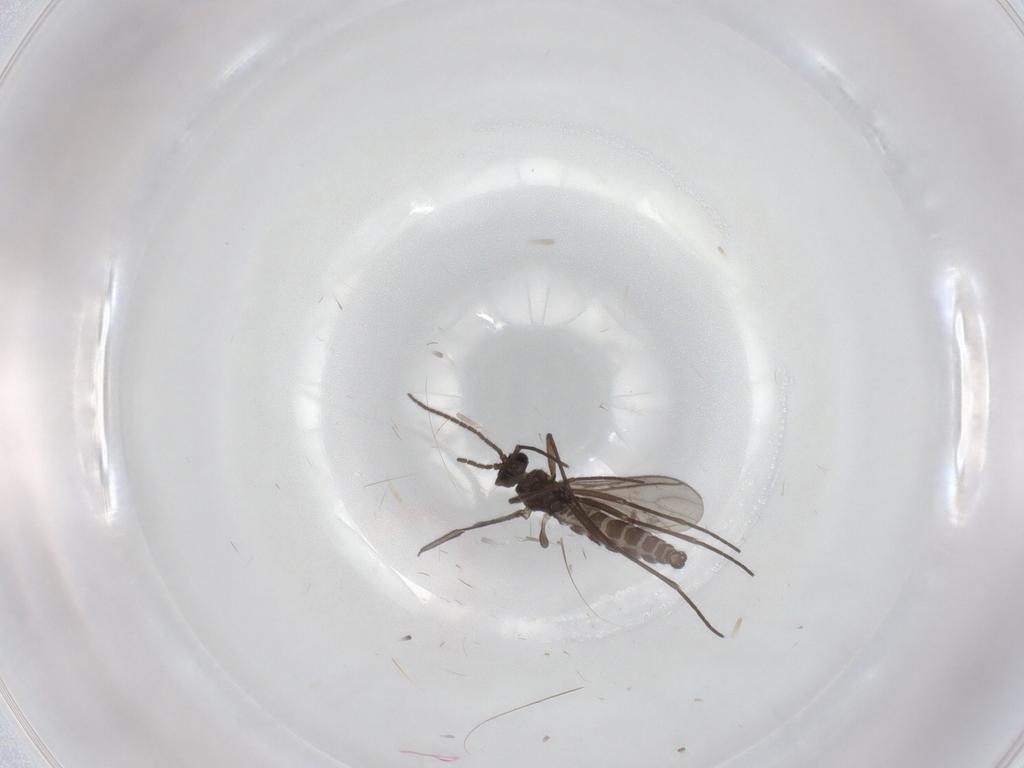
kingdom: Animalia
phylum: Arthropoda
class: Insecta
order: Diptera
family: Sciaridae
